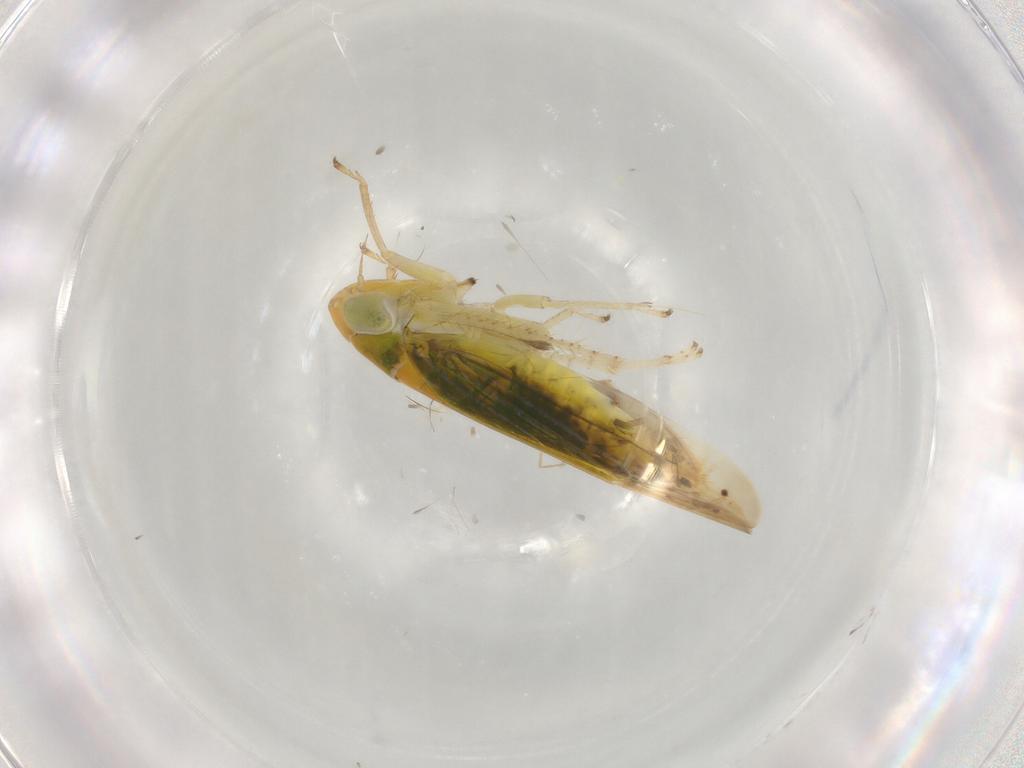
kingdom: Animalia
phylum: Arthropoda
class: Insecta
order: Hemiptera
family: Cicadellidae
